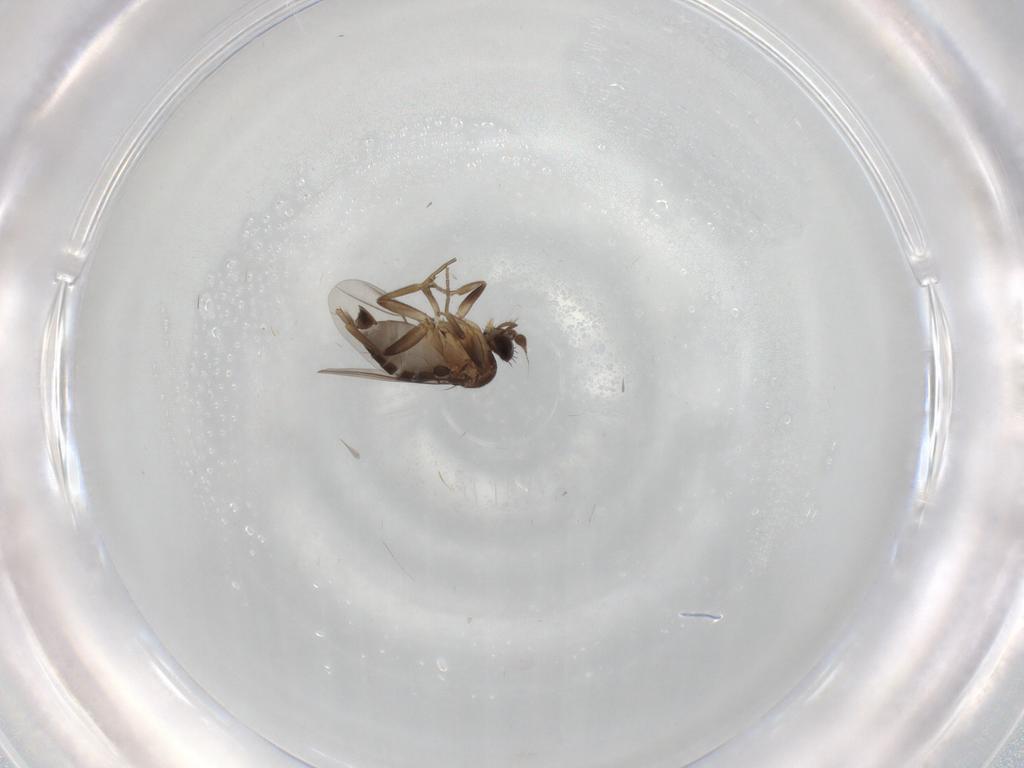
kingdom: Animalia
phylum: Arthropoda
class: Insecta
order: Diptera
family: Phoridae
